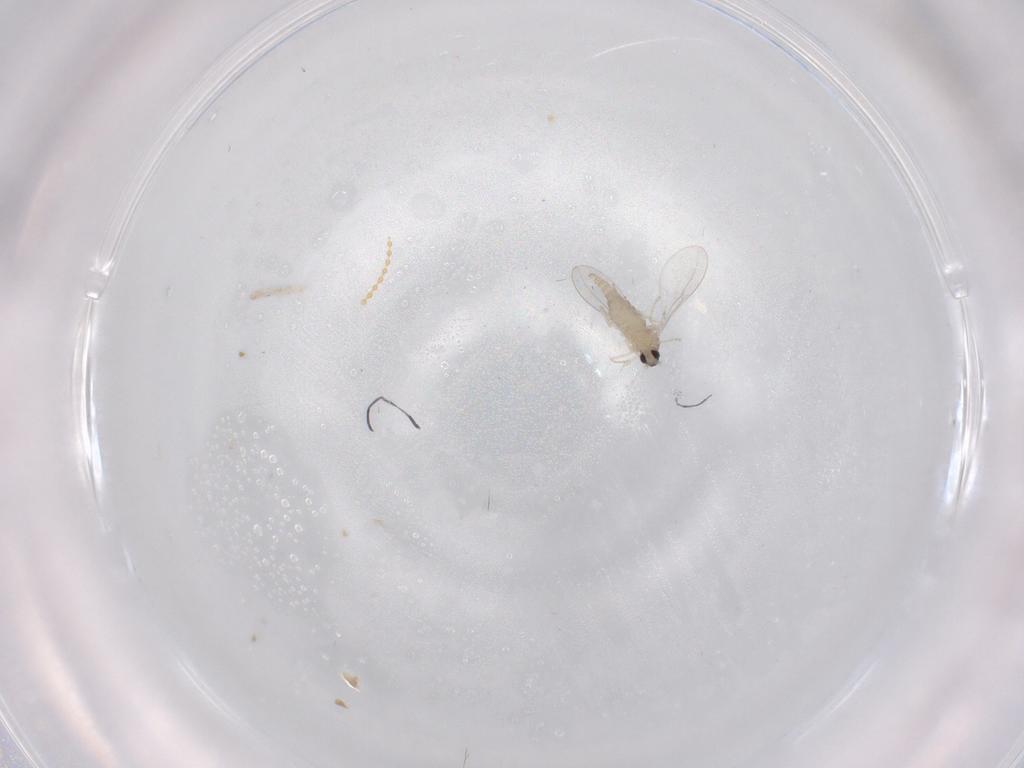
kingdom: Animalia
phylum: Arthropoda
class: Insecta
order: Diptera
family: Cecidomyiidae
